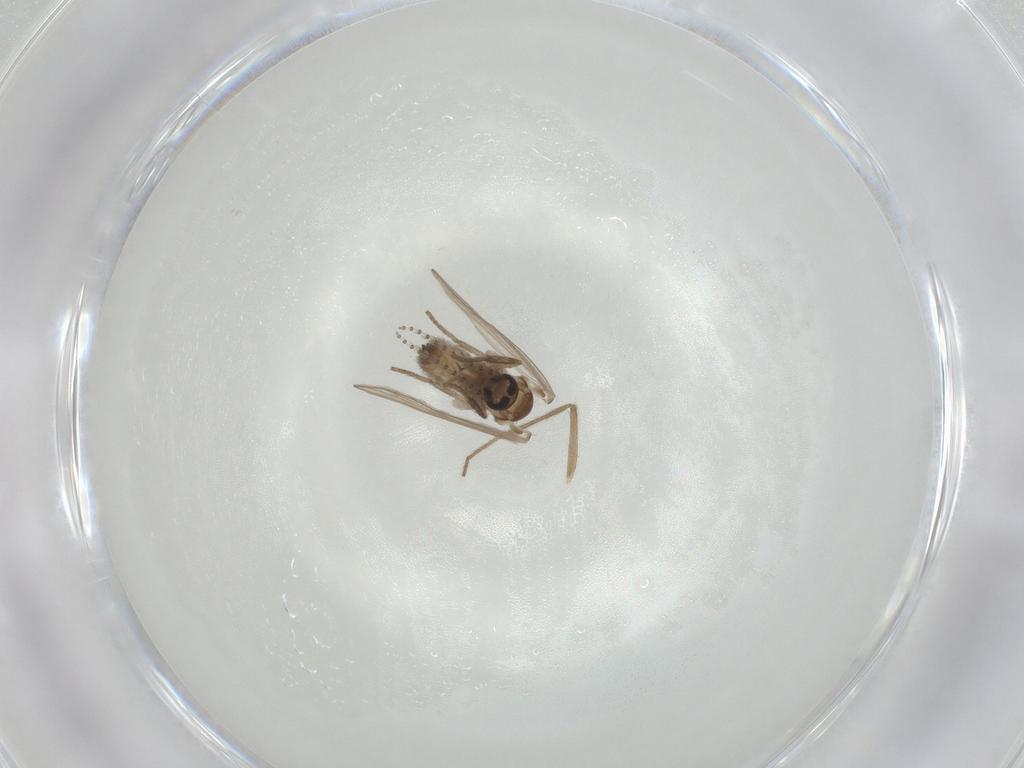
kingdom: Animalia
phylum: Arthropoda
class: Insecta
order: Diptera
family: Psychodidae
